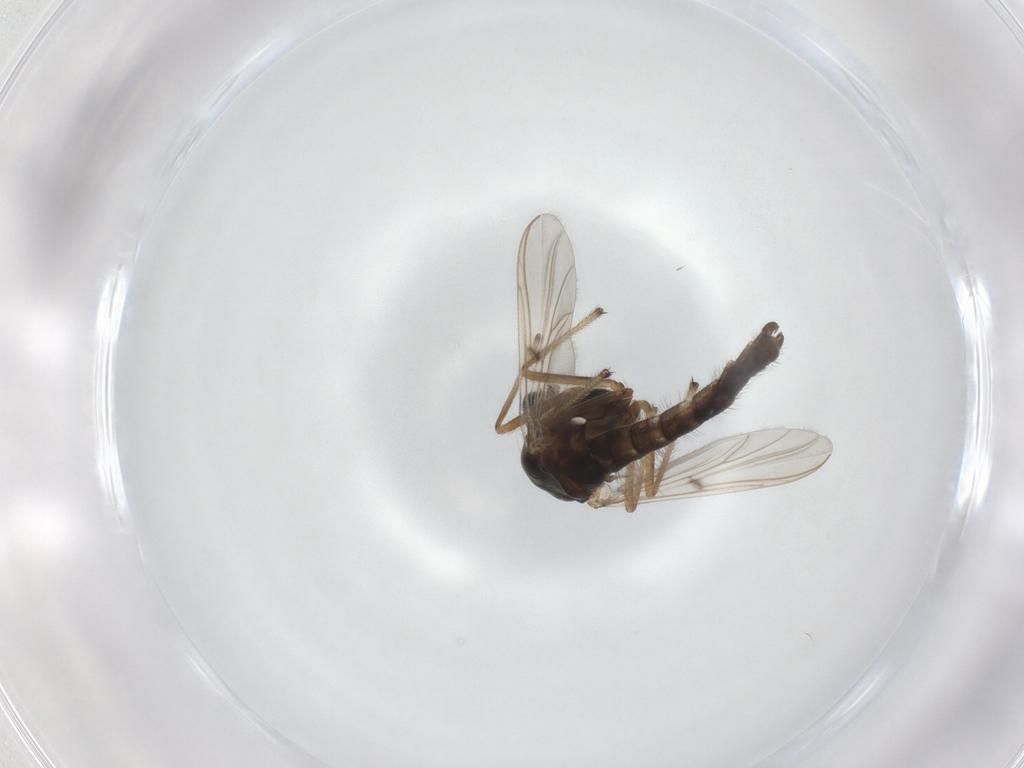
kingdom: Animalia
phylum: Arthropoda
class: Insecta
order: Diptera
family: Chironomidae
